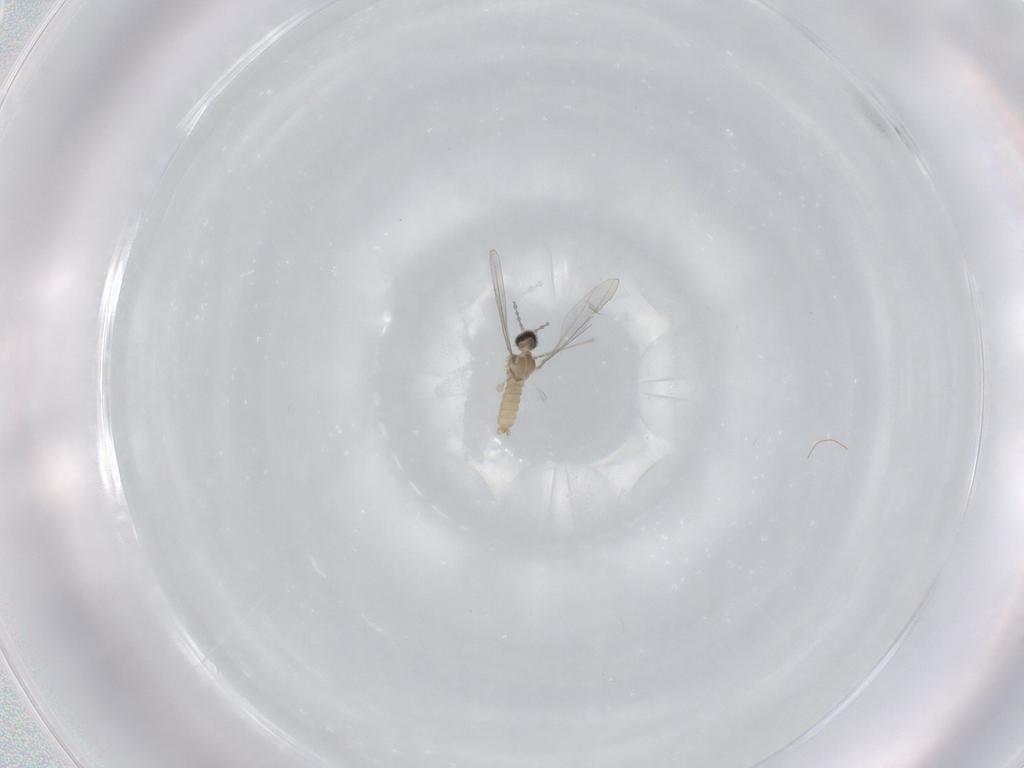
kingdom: Animalia
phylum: Arthropoda
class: Insecta
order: Diptera
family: Cecidomyiidae
